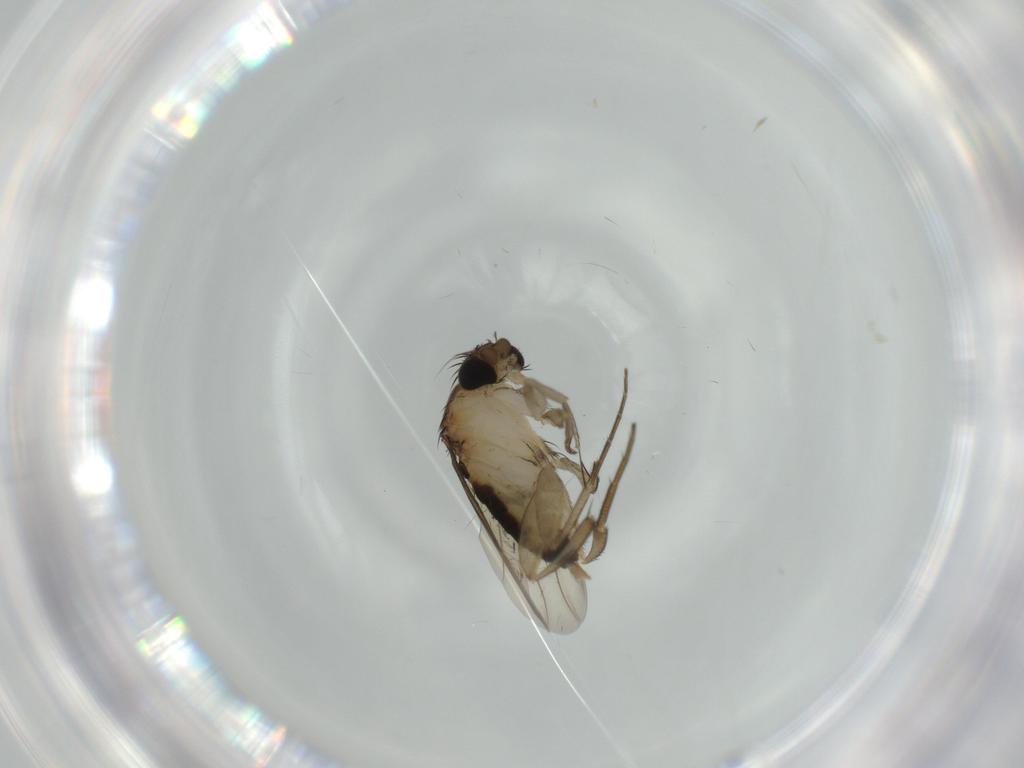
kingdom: Animalia
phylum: Arthropoda
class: Insecta
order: Diptera
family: Cecidomyiidae
